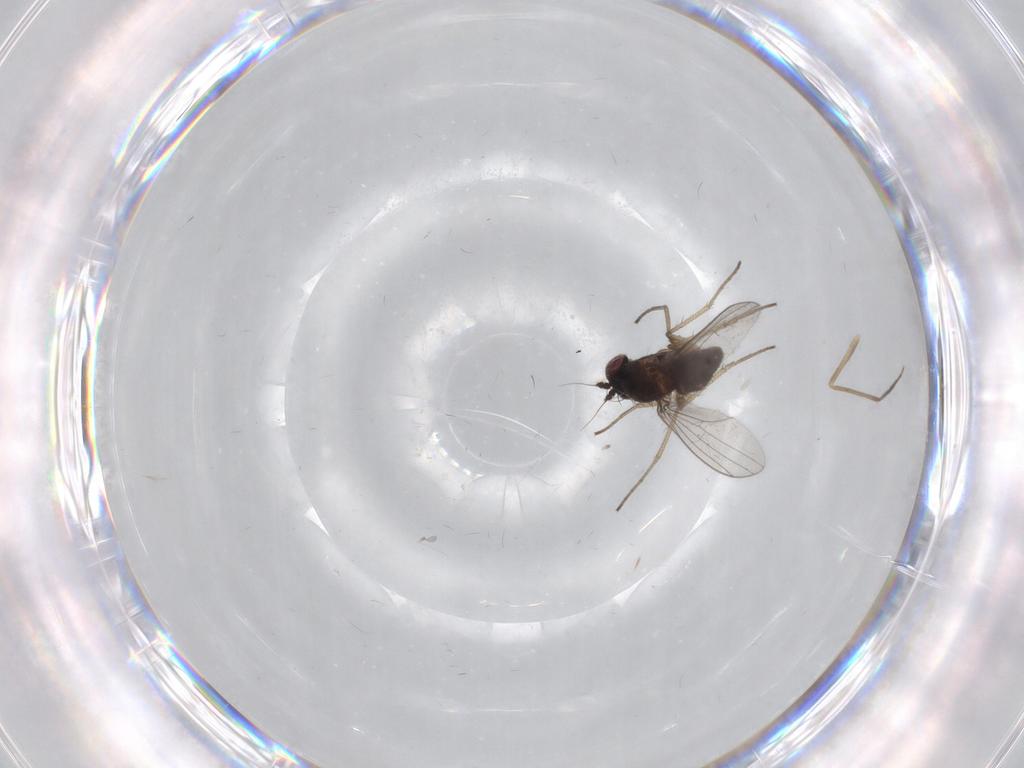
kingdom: Animalia
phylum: Arthropoda
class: Insecta
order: Diptera
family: Dolichopodidae
